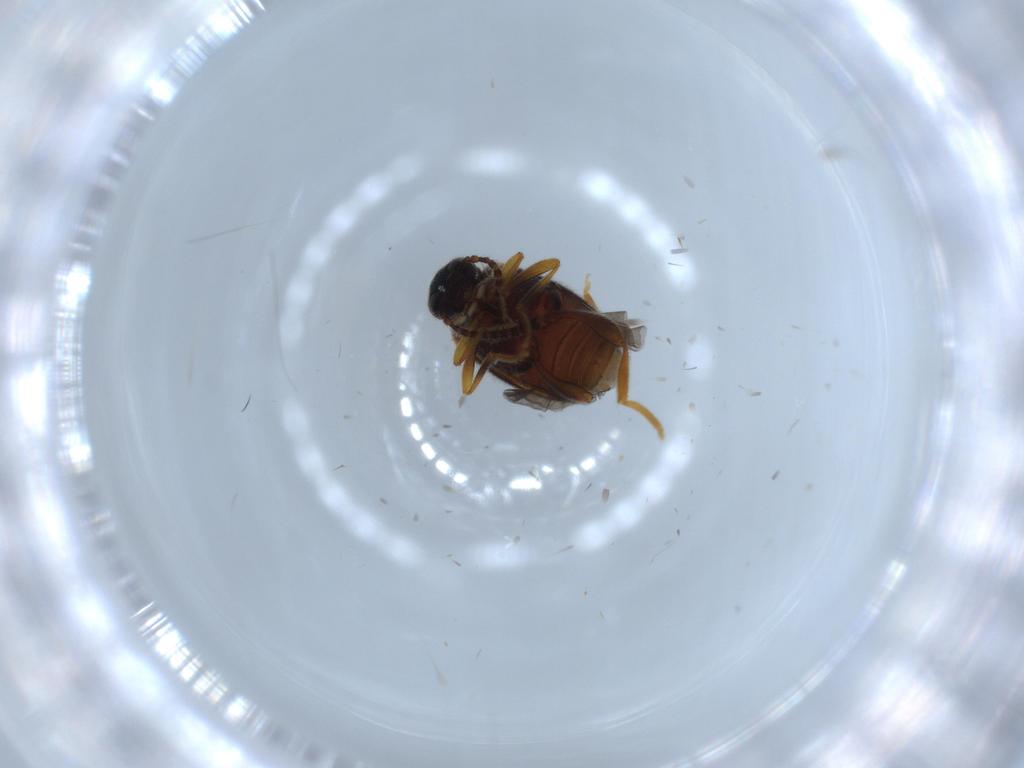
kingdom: Animalia
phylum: Arthropoda
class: Insecta
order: Coleoptera
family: Aderidae
